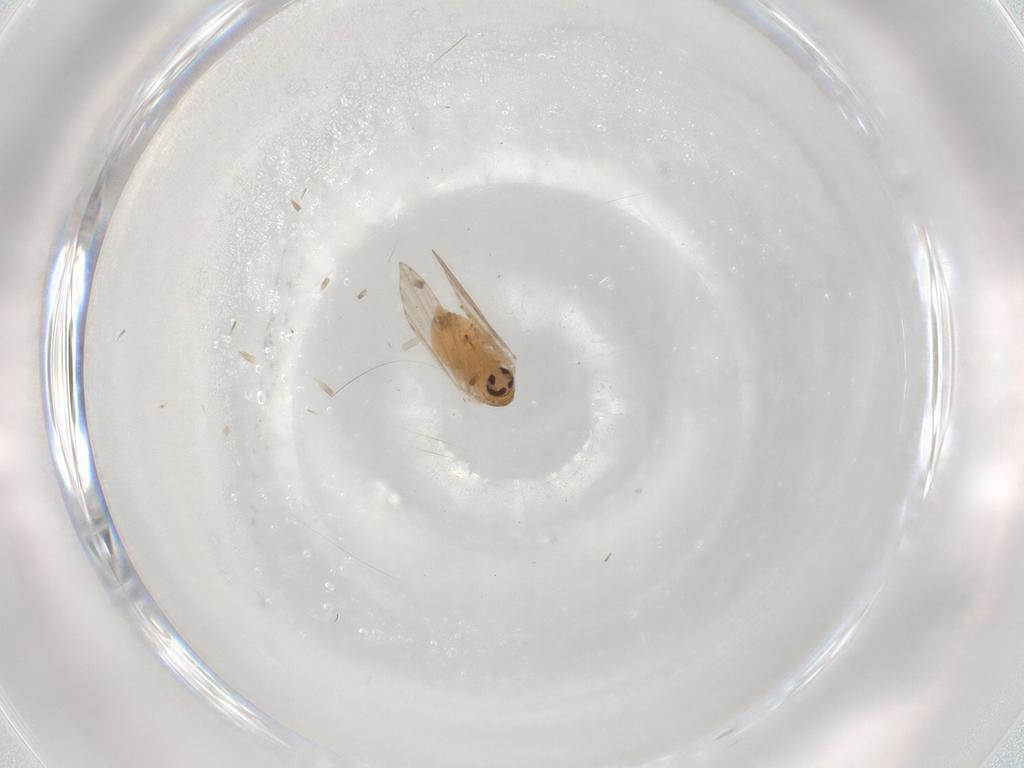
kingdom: Animalia
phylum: Arthropoda
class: Insecta
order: Diptera
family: Psychodidae
